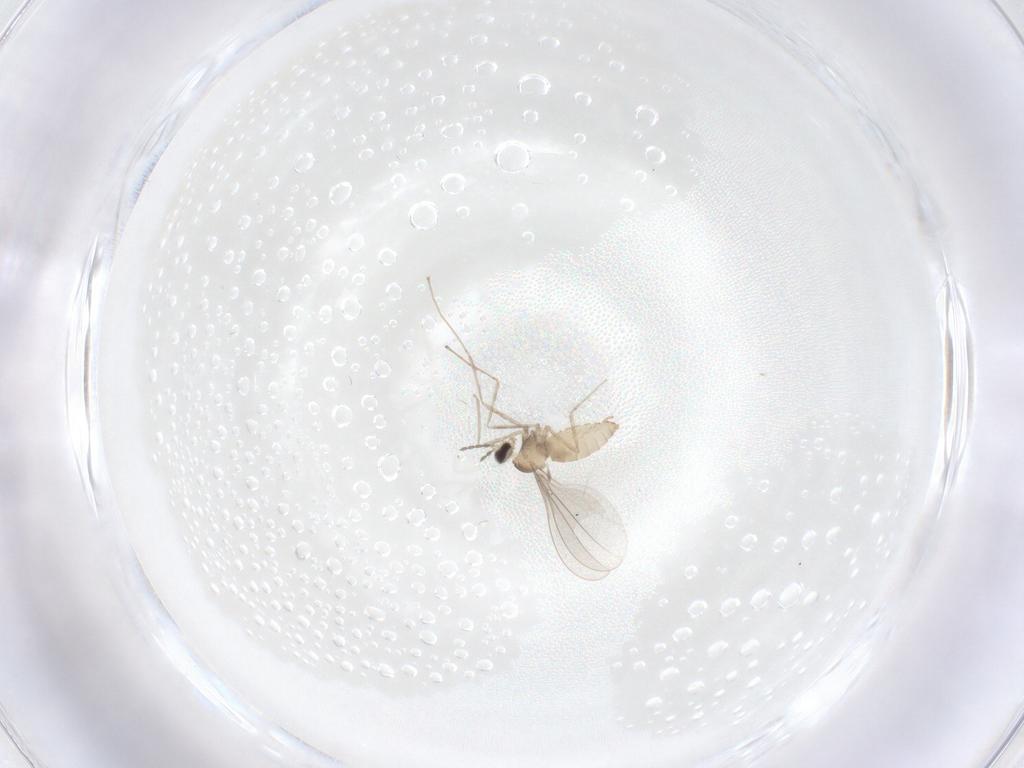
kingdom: Animalia
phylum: Arthropoda
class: Insecta
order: Diptera
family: Cecidomyiidae
